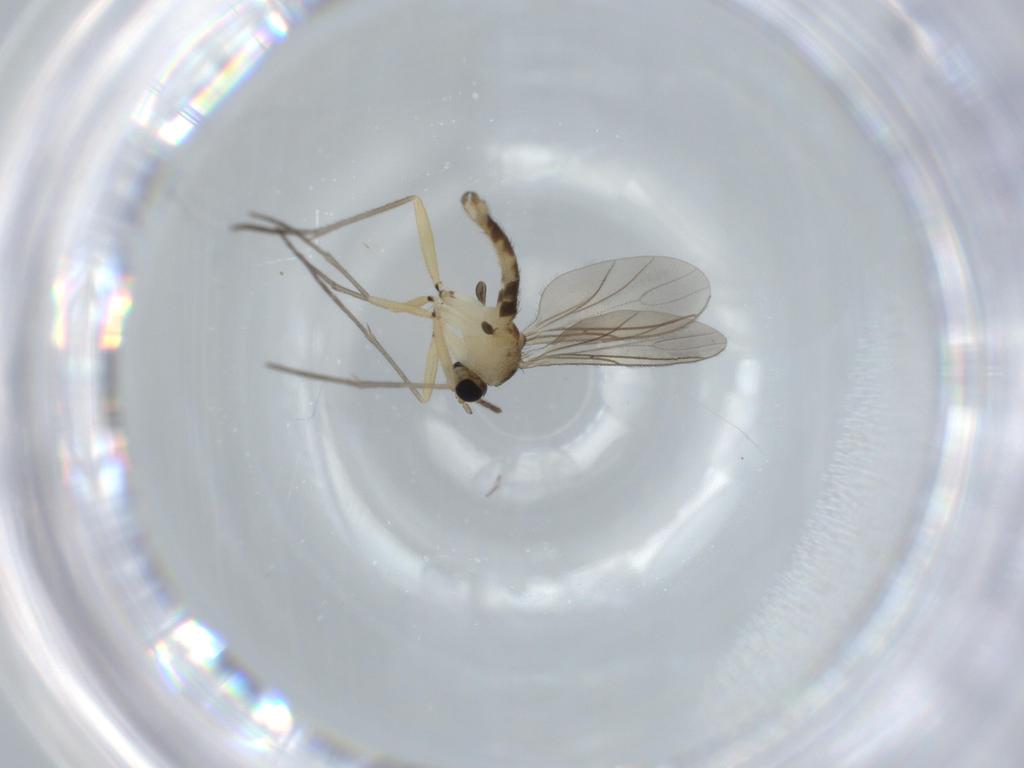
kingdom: Animalia
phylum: Arthropoda
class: Insecta
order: Diptera
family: Sciaridae
